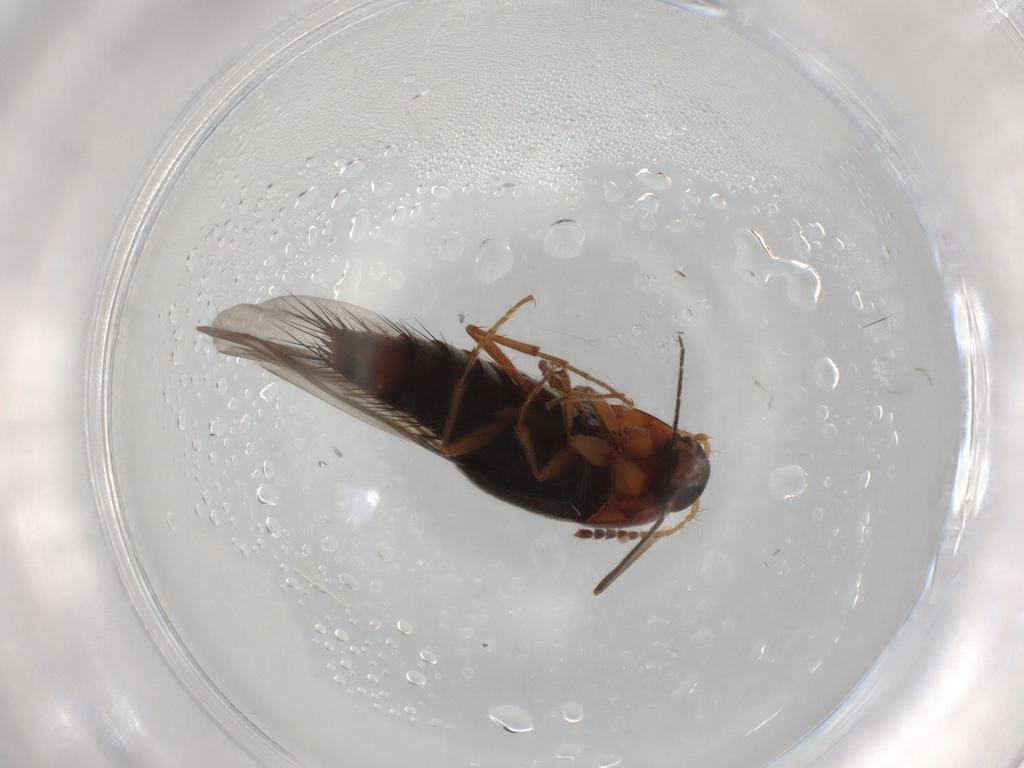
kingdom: Animalia
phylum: Arthropoda
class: Insecta
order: Coleoptera
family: Staphylinidae
